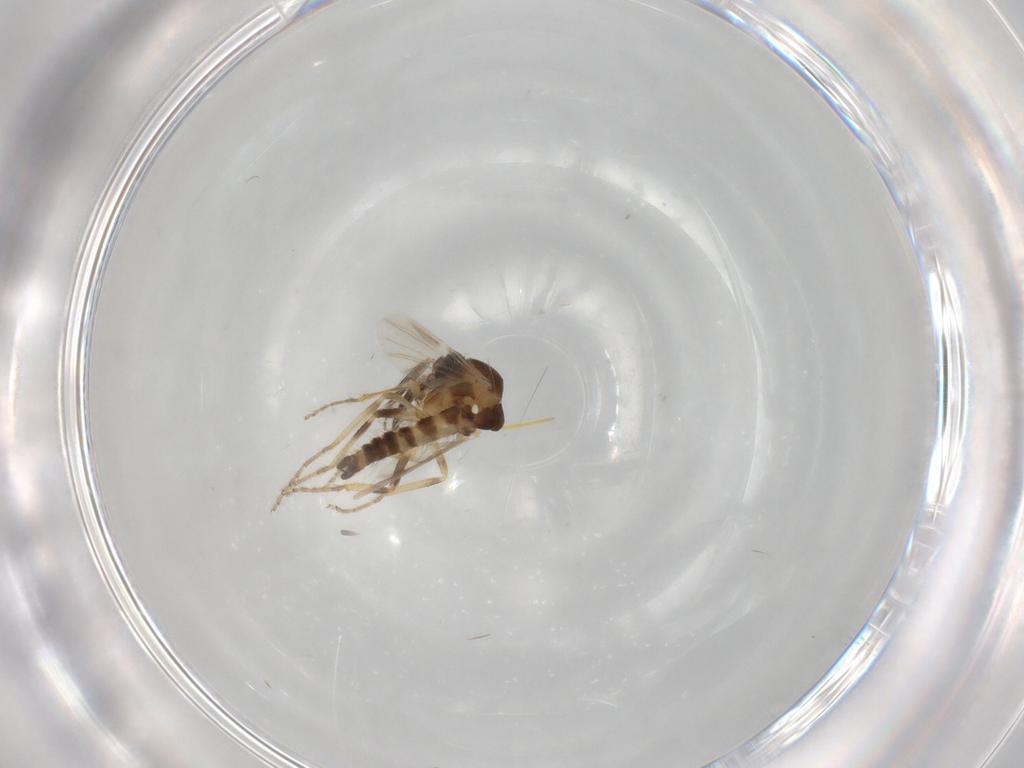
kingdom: Animalia
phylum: Arthropoda
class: Insecta
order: Diptera
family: Ceratopogonidae
